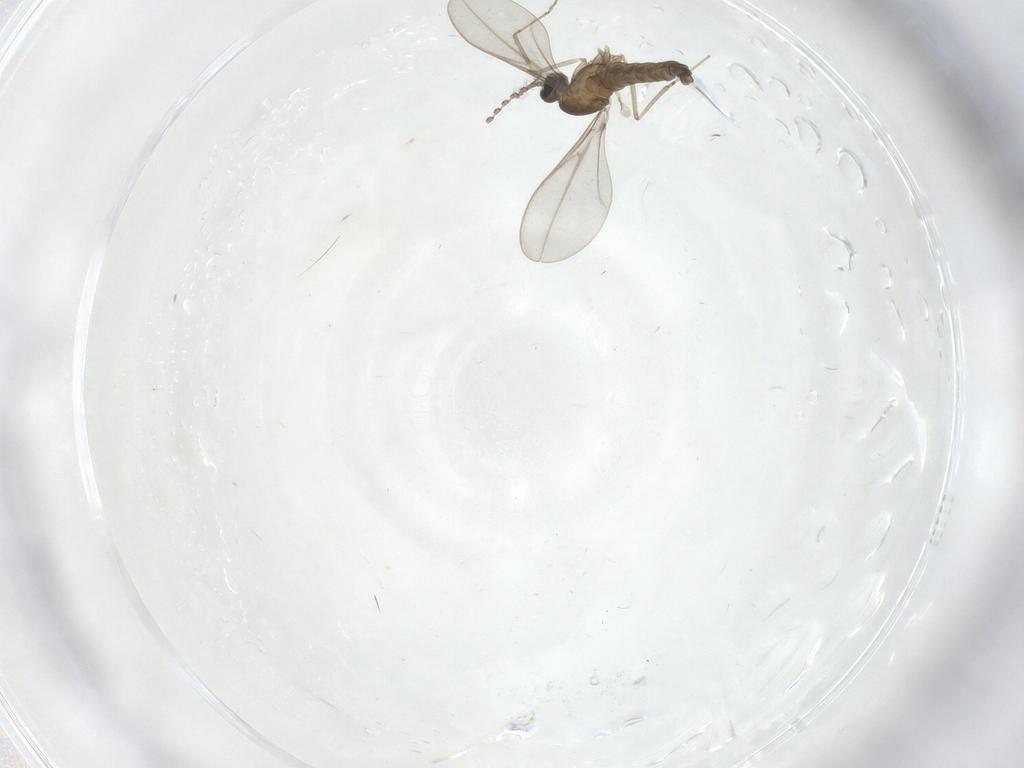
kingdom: Animalia
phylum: Arthropoda
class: Insecta
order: Diptera
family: Cecidomyiidae
